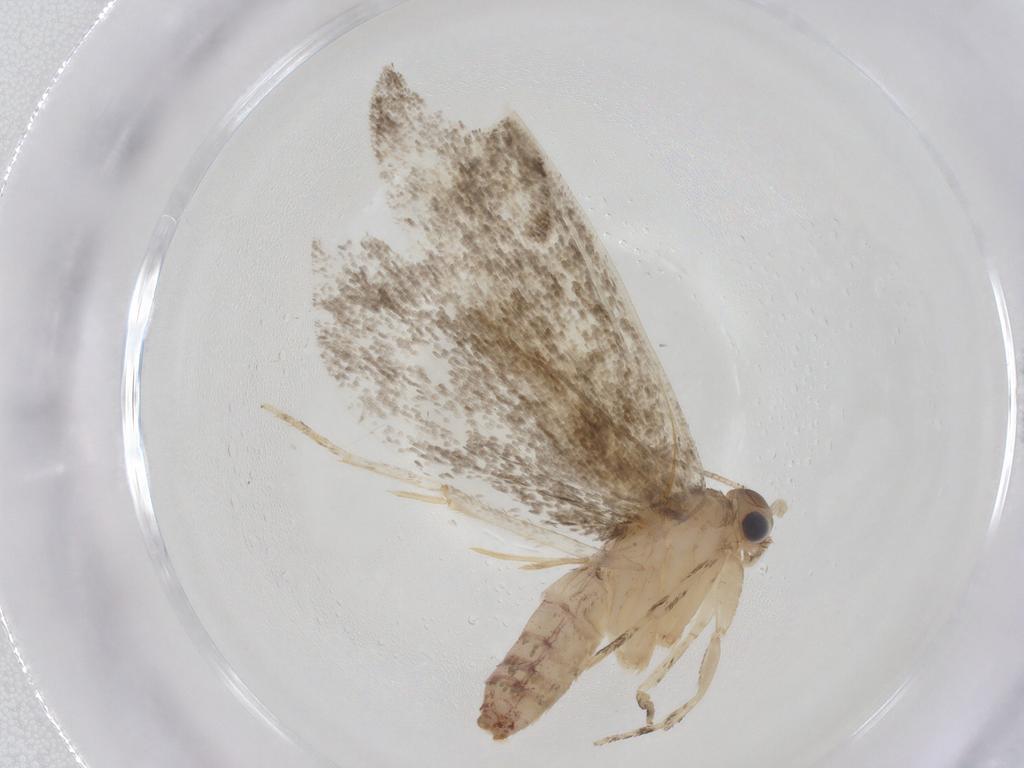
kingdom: Animalia
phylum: Arthropoda
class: Insecta
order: Lepidoptera
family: Tineidae
